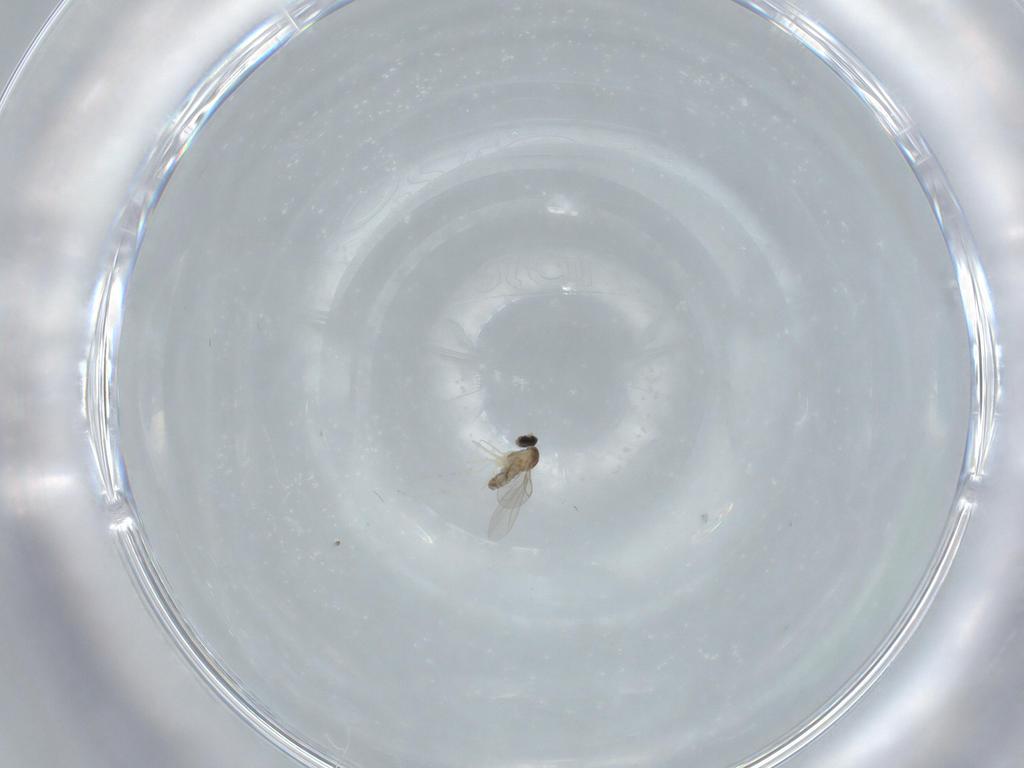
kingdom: Animalia
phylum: Arthropoda
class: Insecta
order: Diptera
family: Cecidomyiidae
